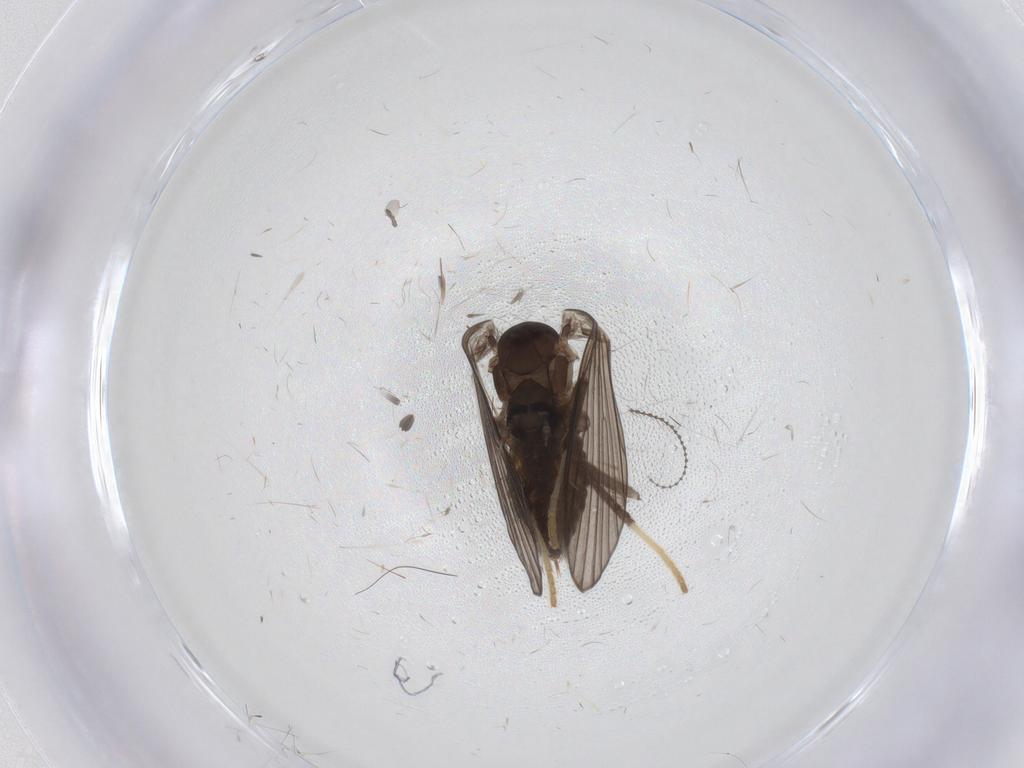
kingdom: Animalia
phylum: Arthropoda
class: Insecta
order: Diptera
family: Psychodidae
